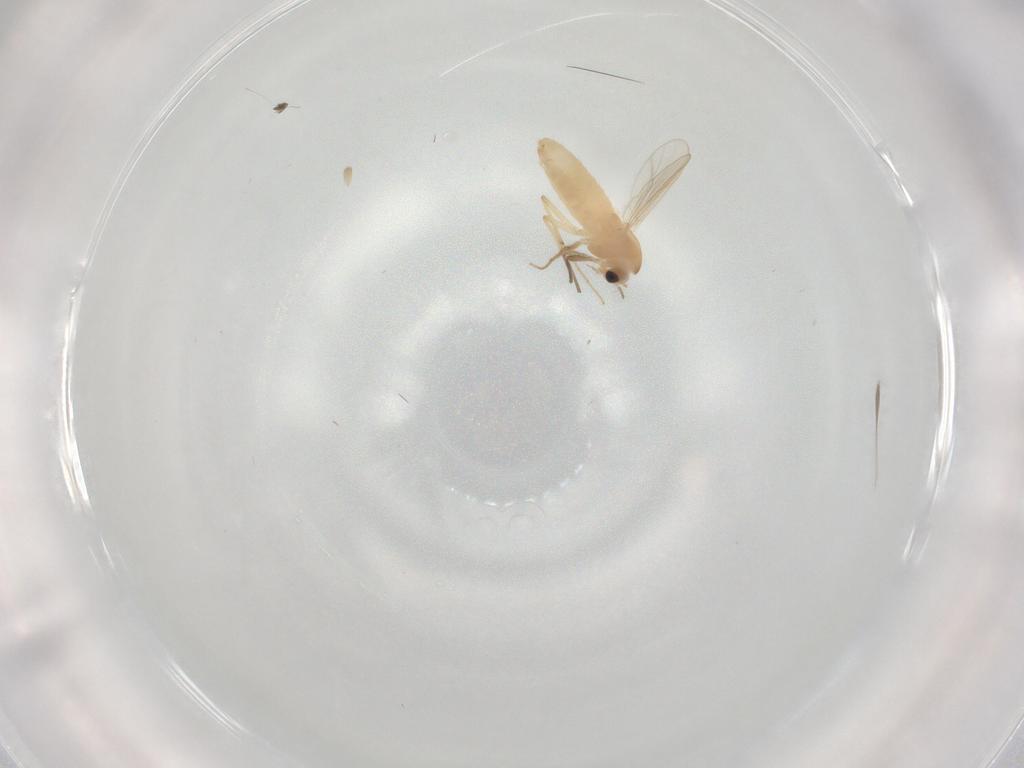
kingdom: Animalia
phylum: Arthropoda
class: Insecta
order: Diptera
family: Chironomidae
